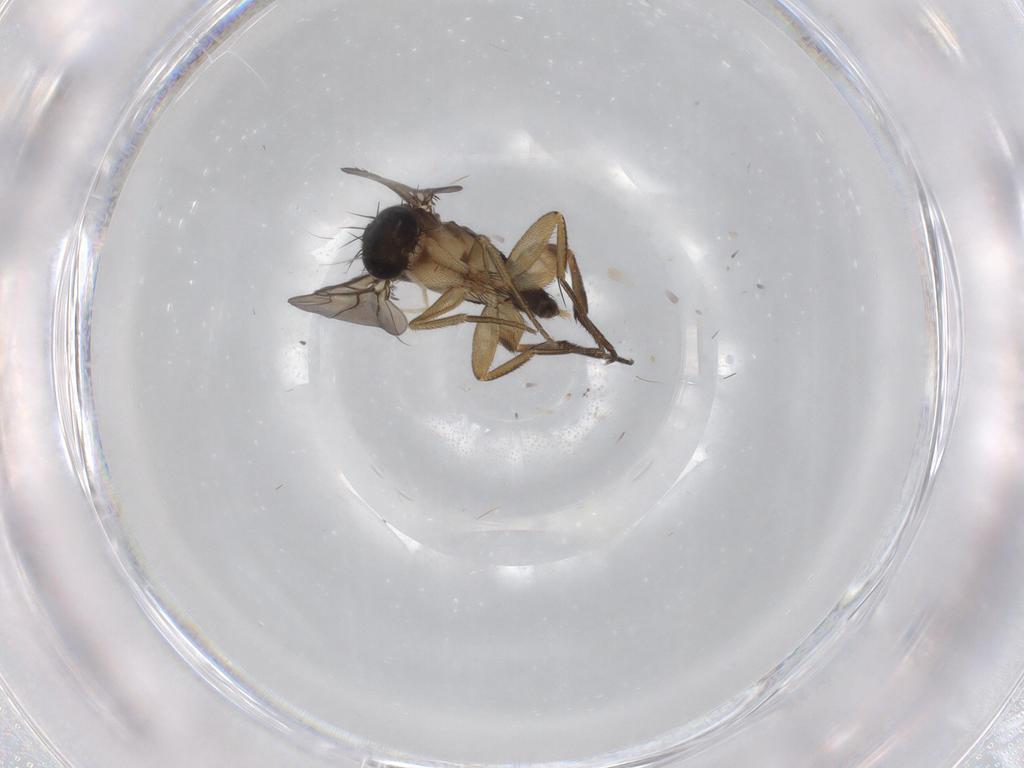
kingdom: Animalia
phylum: Arthropoda
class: Insecta
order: Diptera
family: Phoridae
